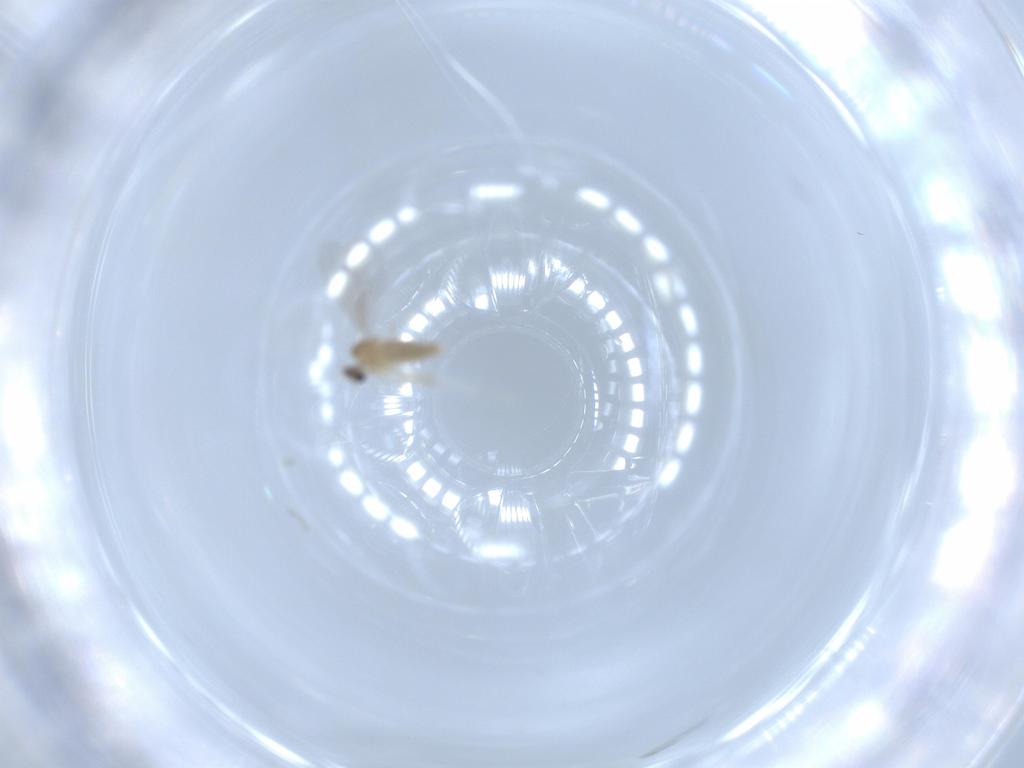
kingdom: Animalia
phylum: Arthropoda
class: Insecta
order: Diptera
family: Cecidomyiidae
